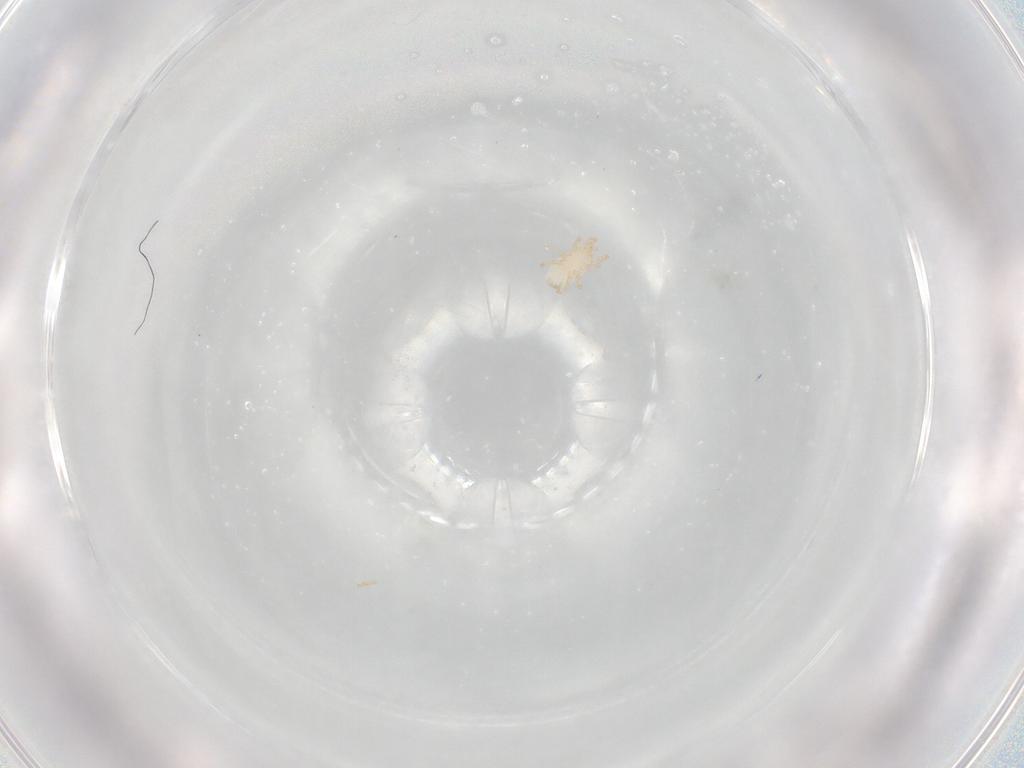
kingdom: Animalia
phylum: Arthropoda
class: Arachnida
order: Mesostigmata
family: Melicharidae
